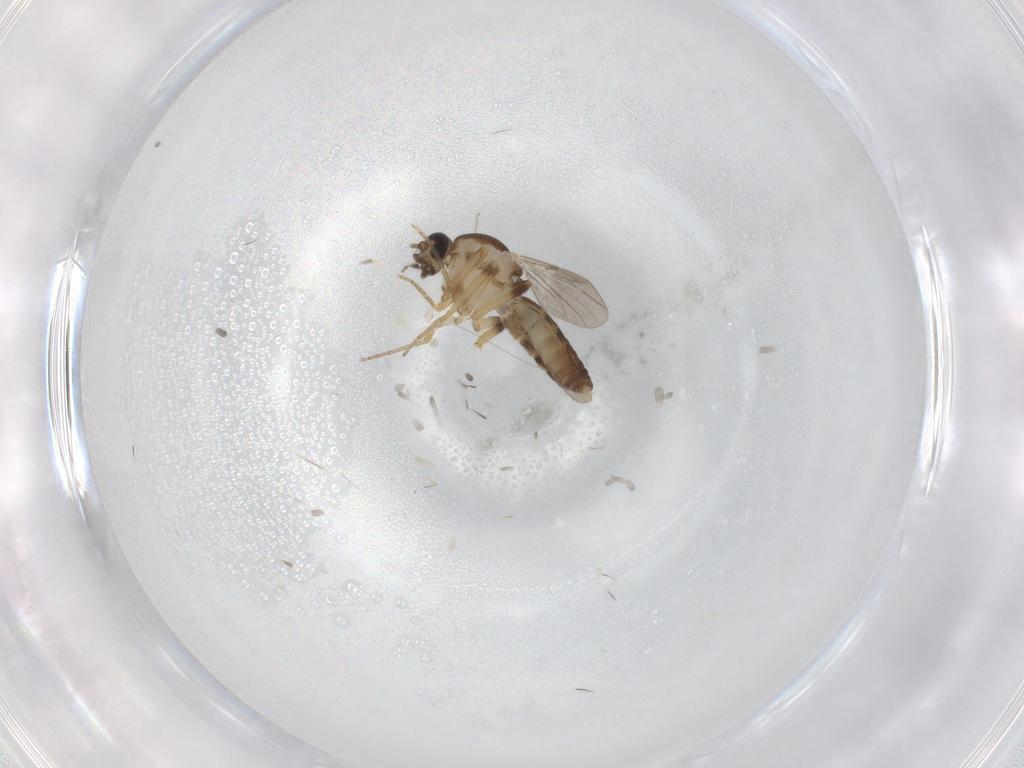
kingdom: Animalia
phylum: Arthropoda
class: Insecta
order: Diptera
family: Ceratopogonidae
